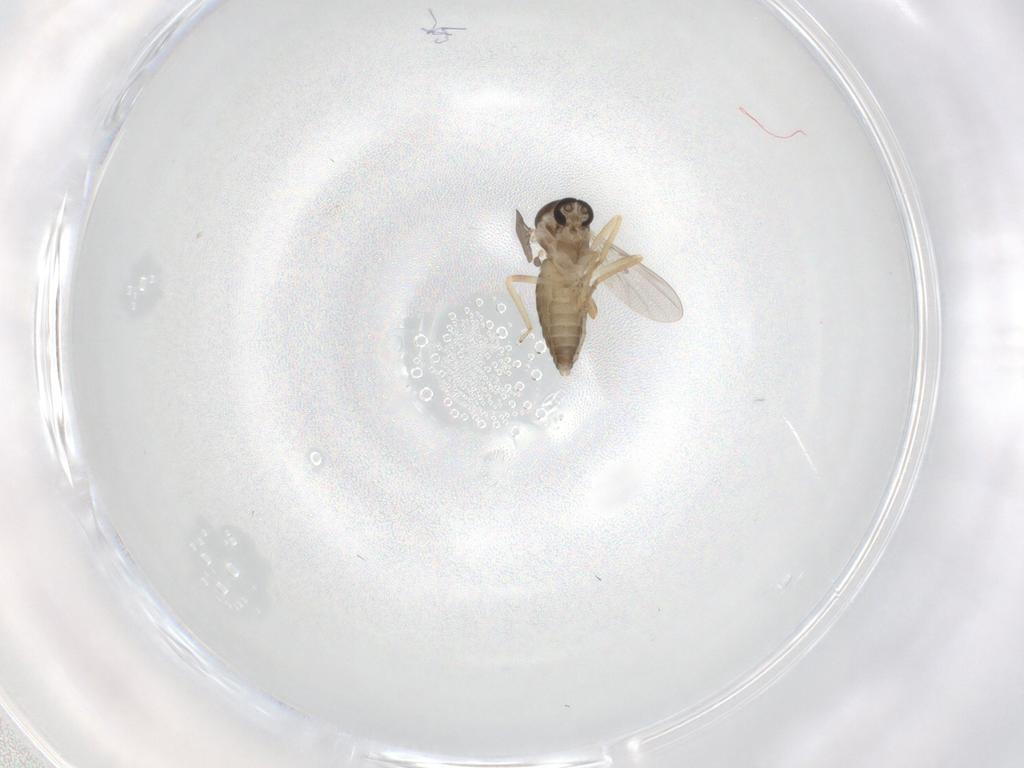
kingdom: Animalia
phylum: Arthropoda
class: Insecta
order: Diptera
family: Ceratopogonidae
